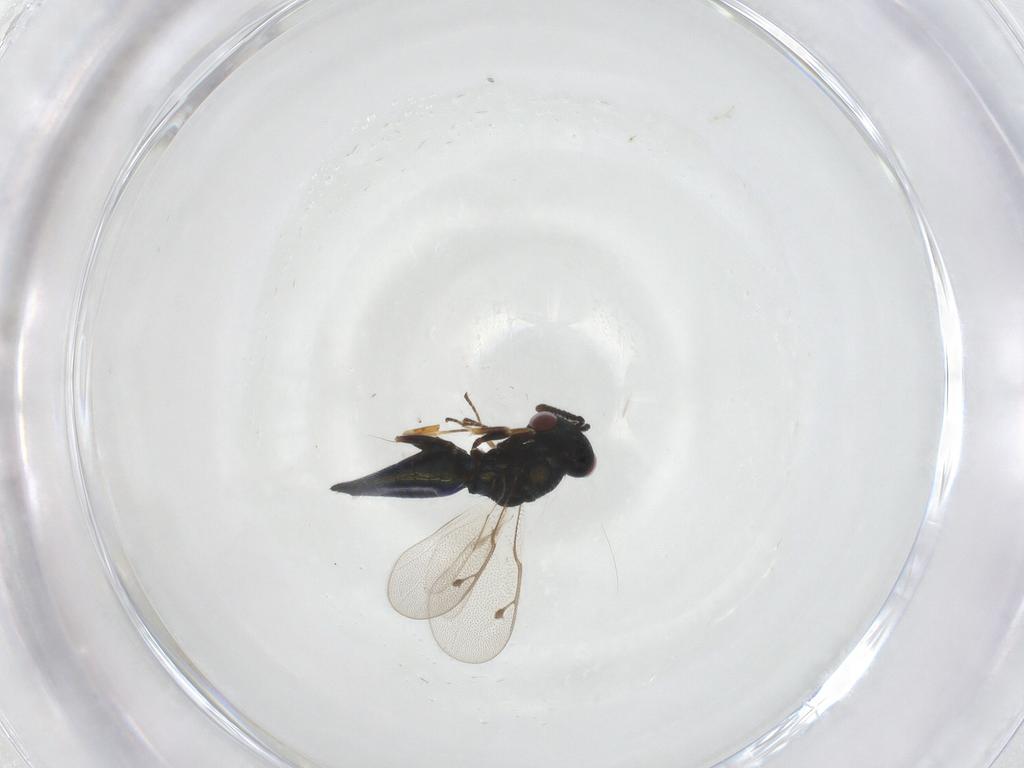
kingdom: Animalia
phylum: Arthropoda
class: Insecta
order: Hymenoptera
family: Pteromalidae
